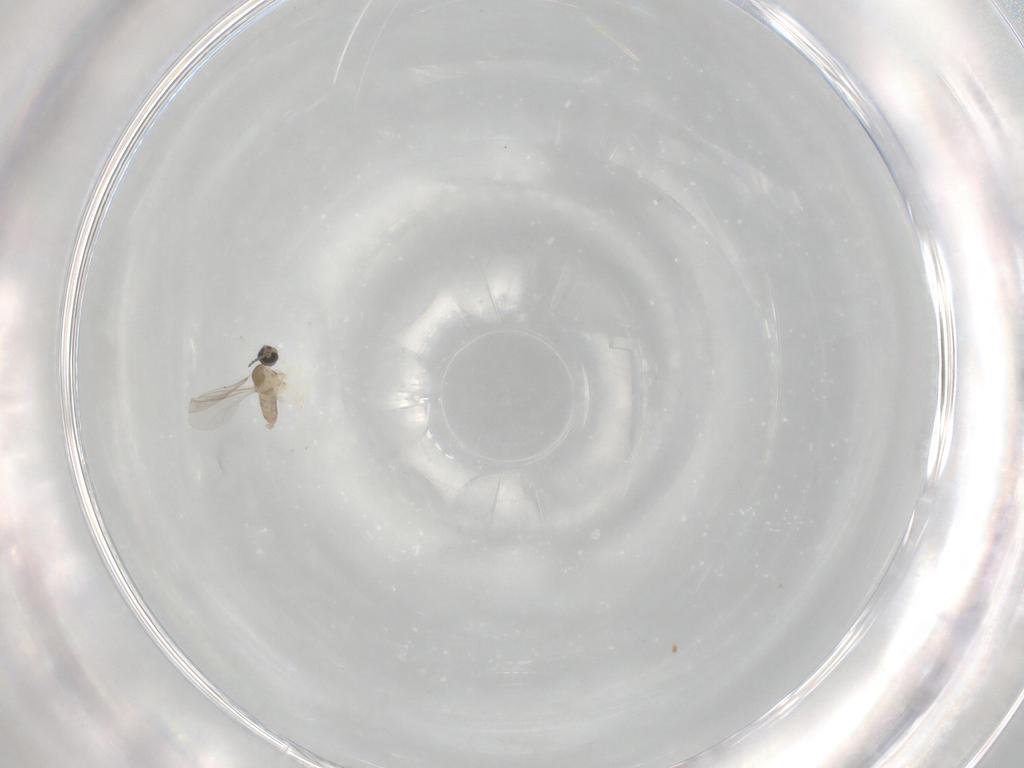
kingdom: Animalia
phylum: Arthropoda
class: Insecta
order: Diptera
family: Cecidomyiidae
